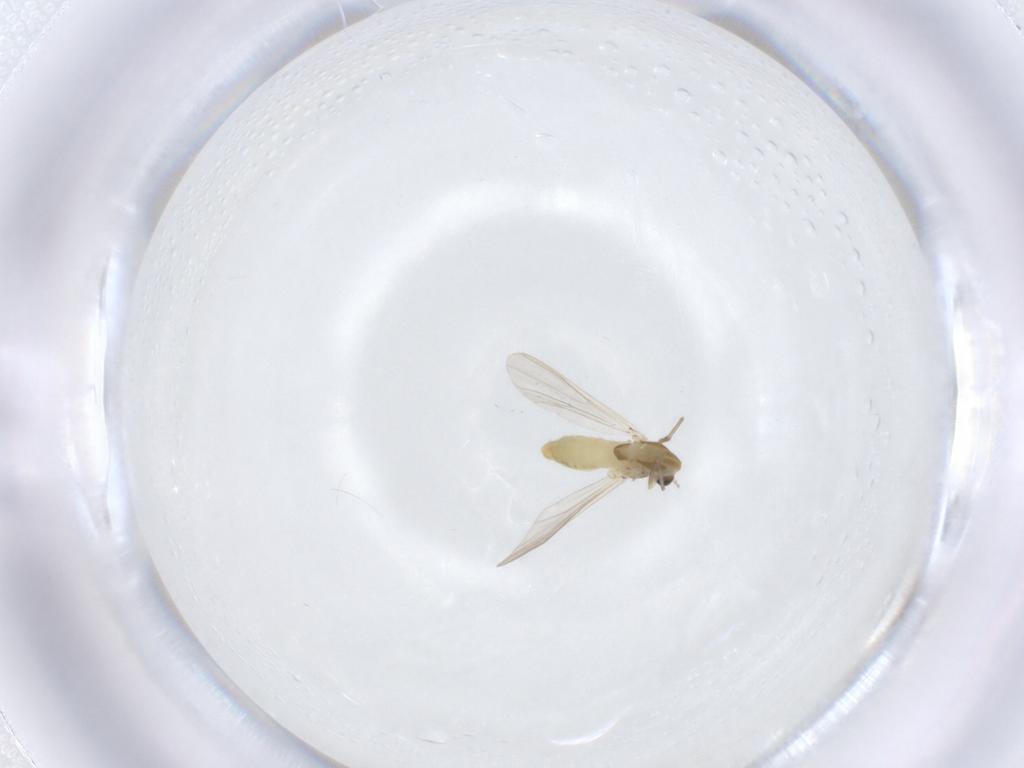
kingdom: Animalia
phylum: Arthropoda
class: Insecta
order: Diptera
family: Chironomidae
